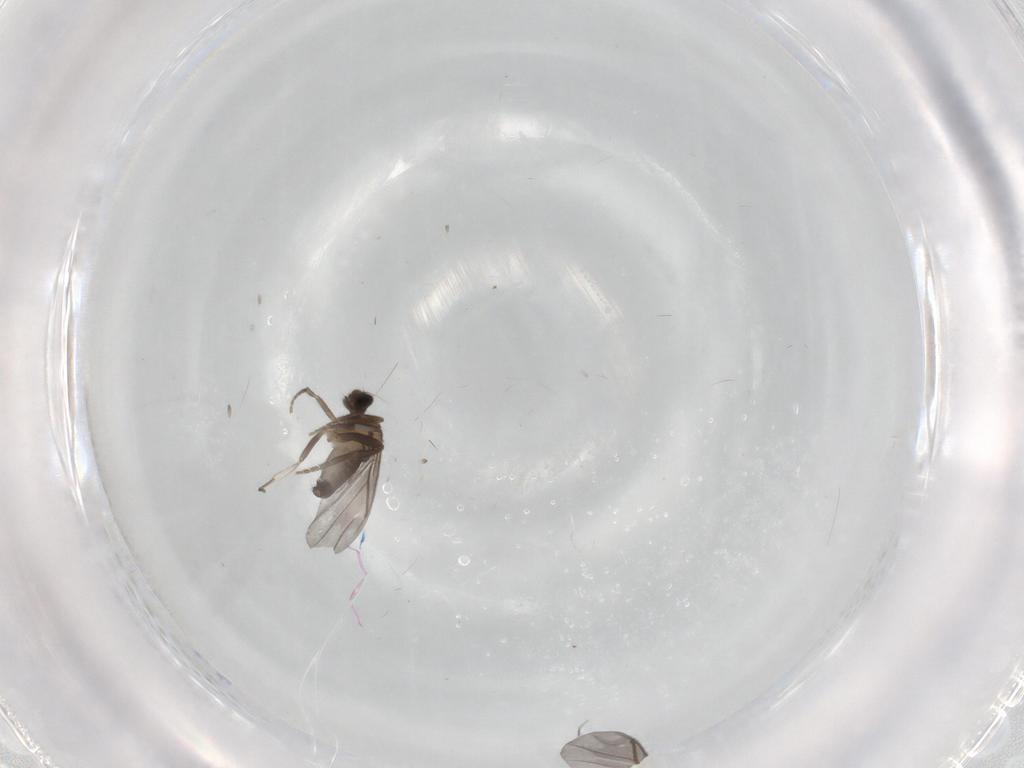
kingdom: Animalia
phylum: Arthropoda
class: Insecta
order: Diptera
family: Phoridae
